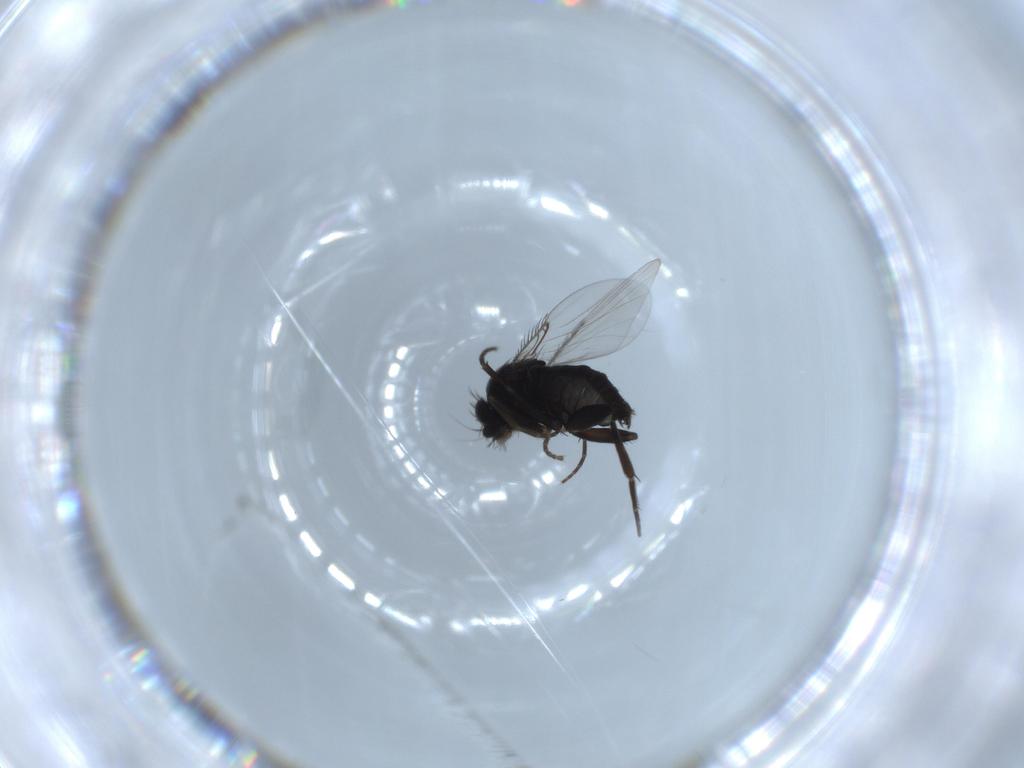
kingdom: Animalia
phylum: Arthropoda
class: Insecta
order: Diptera
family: Phoridae
